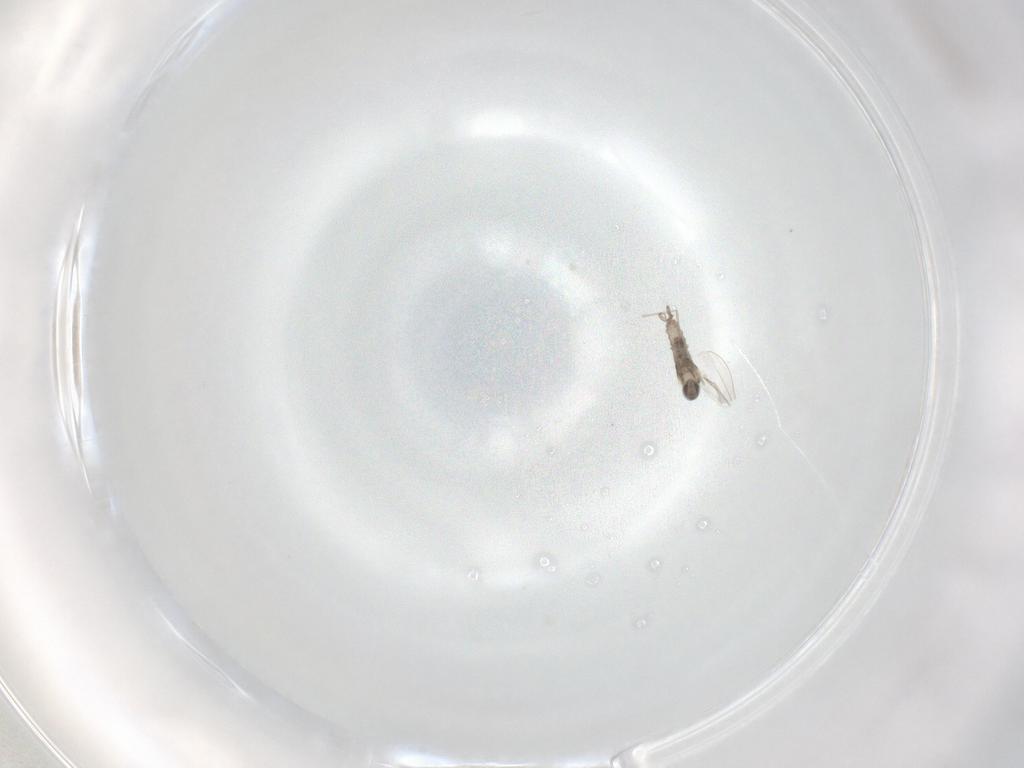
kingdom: Animalia
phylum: Arthropoda
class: Insecta
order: Diptera
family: Cecidomyiidae
